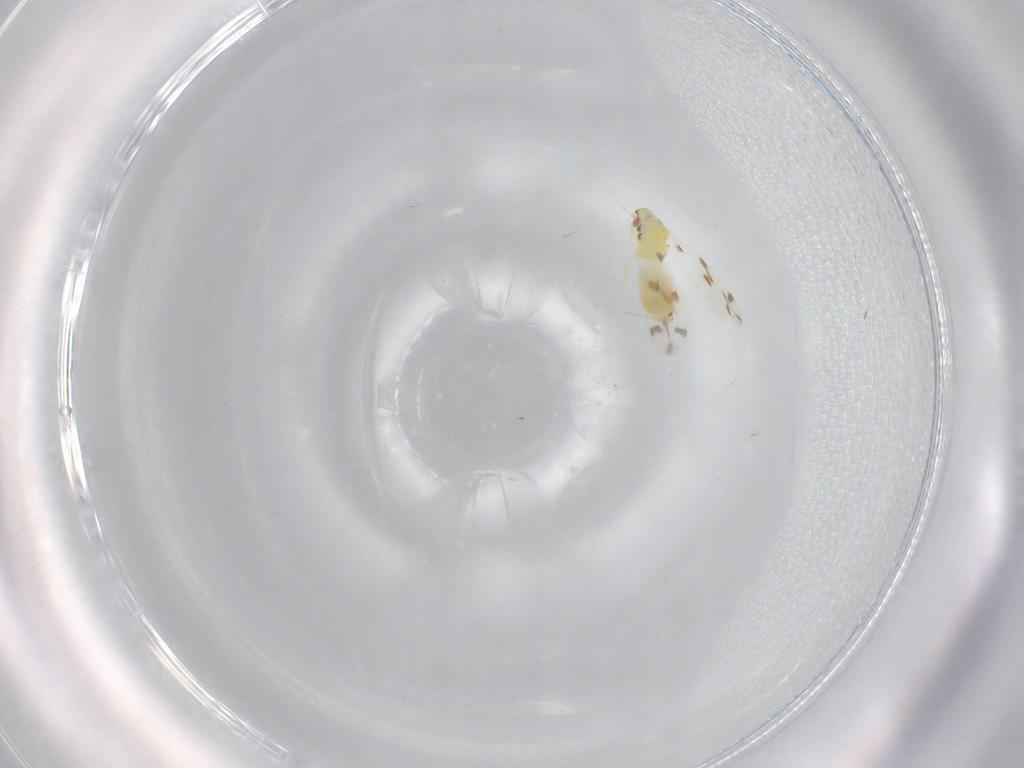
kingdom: Animalia
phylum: Arthropoda
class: Insecta
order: Hemiptera
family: Aleyrodidae
